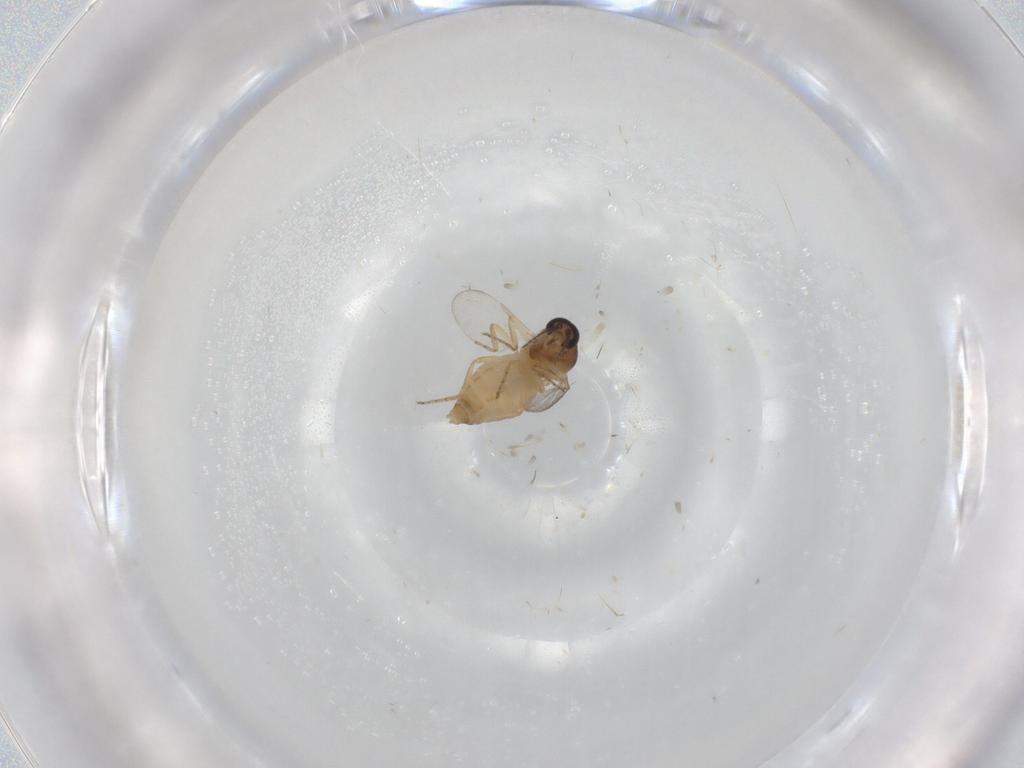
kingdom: Animalia
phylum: Arthropoda
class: Insecta
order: Diptera
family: Ceratopogonidae
